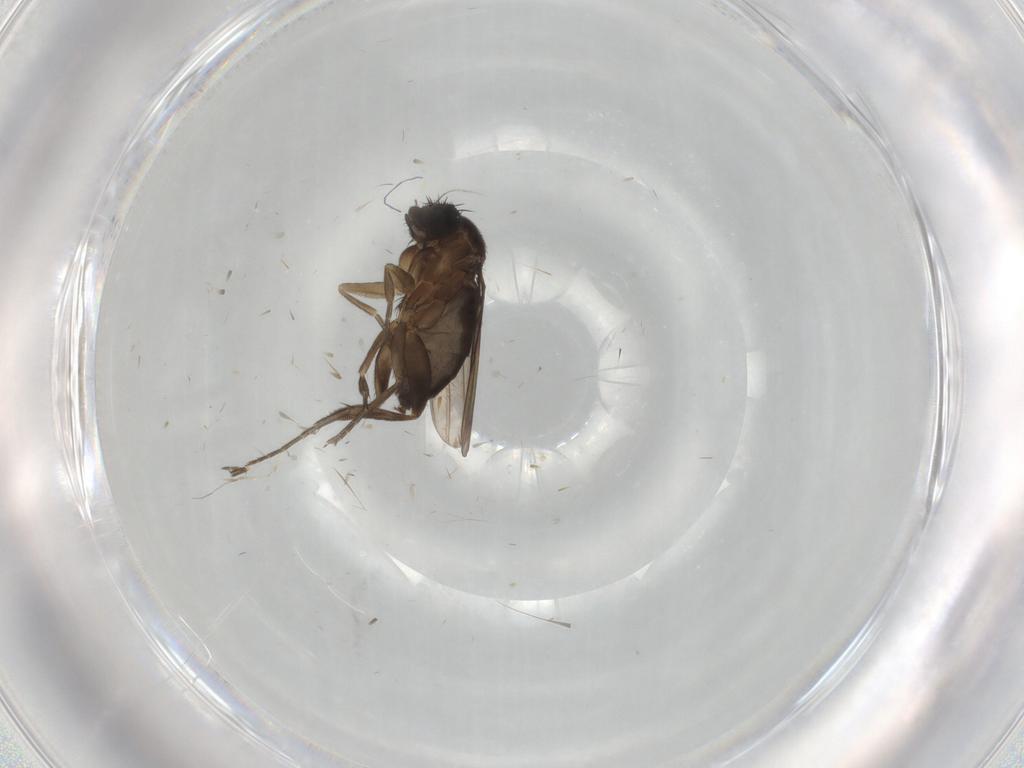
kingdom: Animalia
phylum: Arthropoda
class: Insecta
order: Diptera
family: Phoridae
